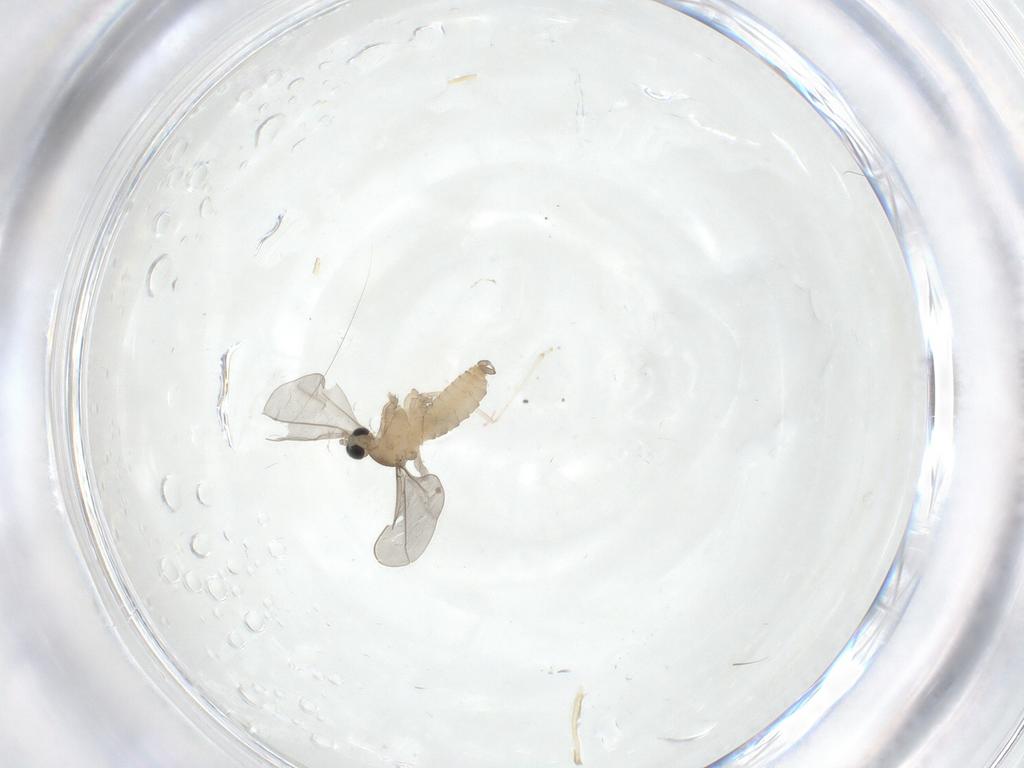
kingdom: Animalia
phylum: Arthropoda
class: Insecta
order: Diptera
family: Cecidomyiidae
